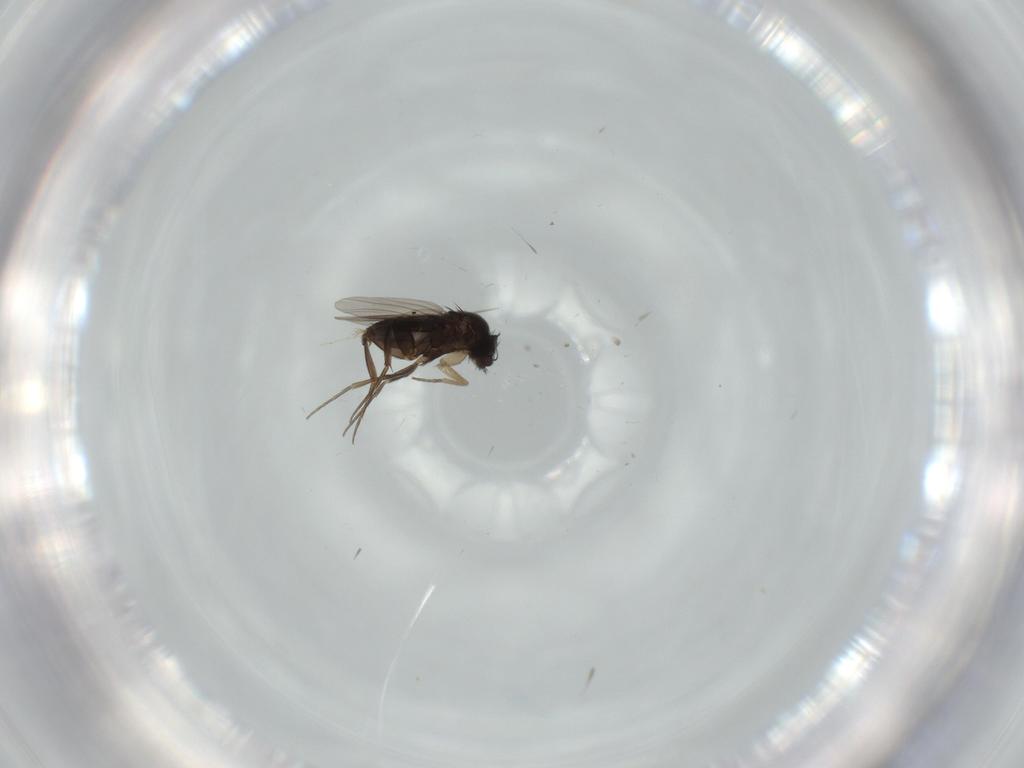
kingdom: Animalia
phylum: Arthropoda
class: Insecta
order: Diptera
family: Phoridae
